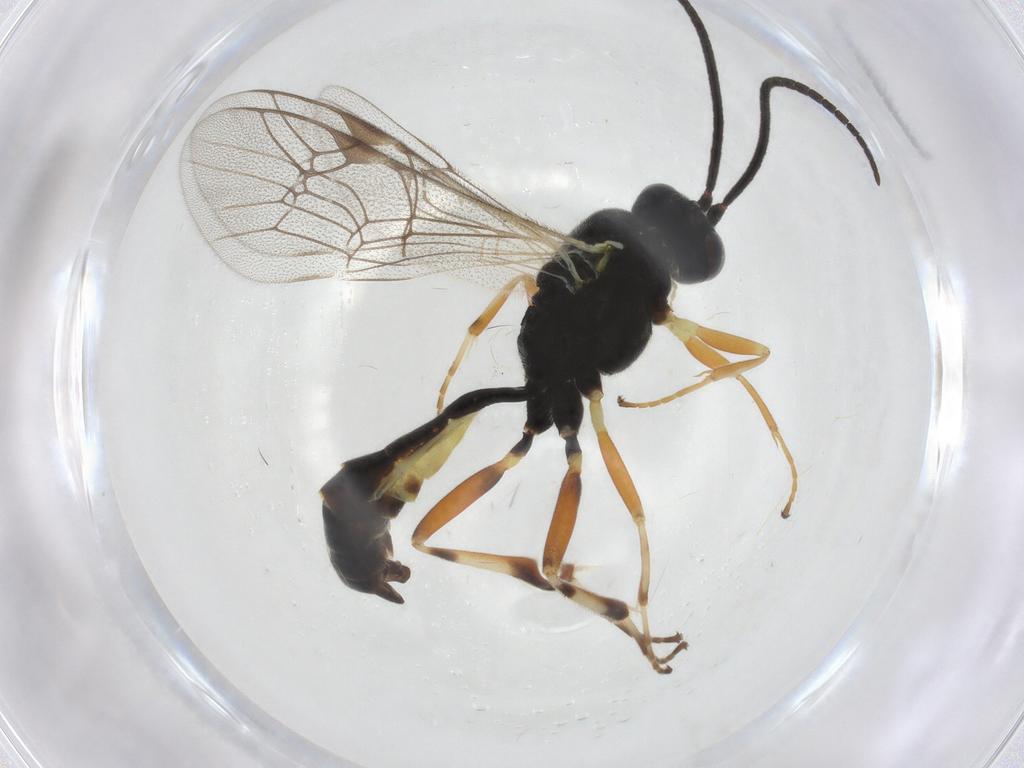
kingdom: Animalia
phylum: Arthropoda
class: Insecta
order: Hymenoptera
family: Ichneumonidae
